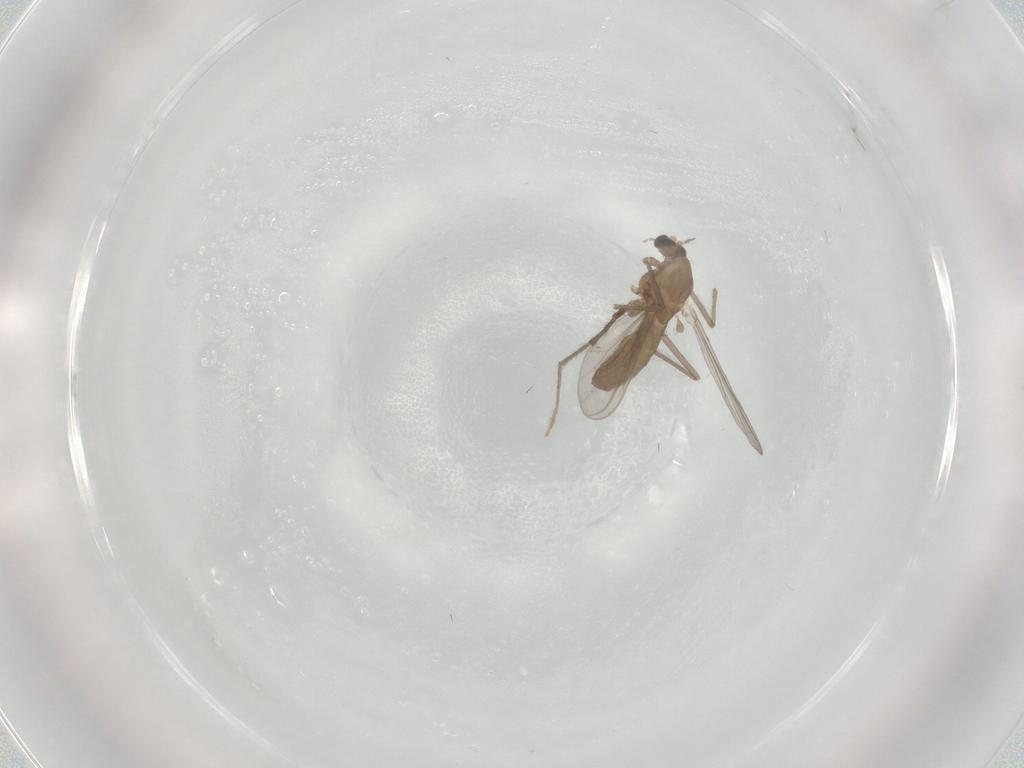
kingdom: Animalia
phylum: Arthropoda
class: Insecta
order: Diptera
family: Chironomidae
